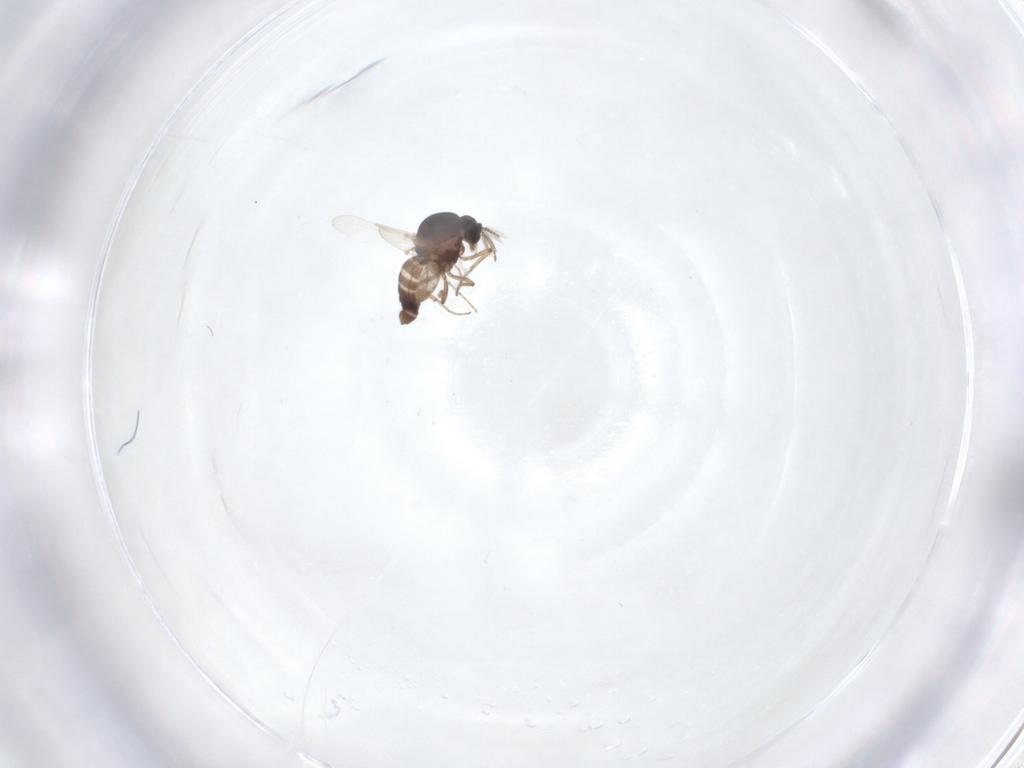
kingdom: Animalia
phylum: Arthropoda
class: Insecta
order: Diptera
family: Ceratopogonidae
